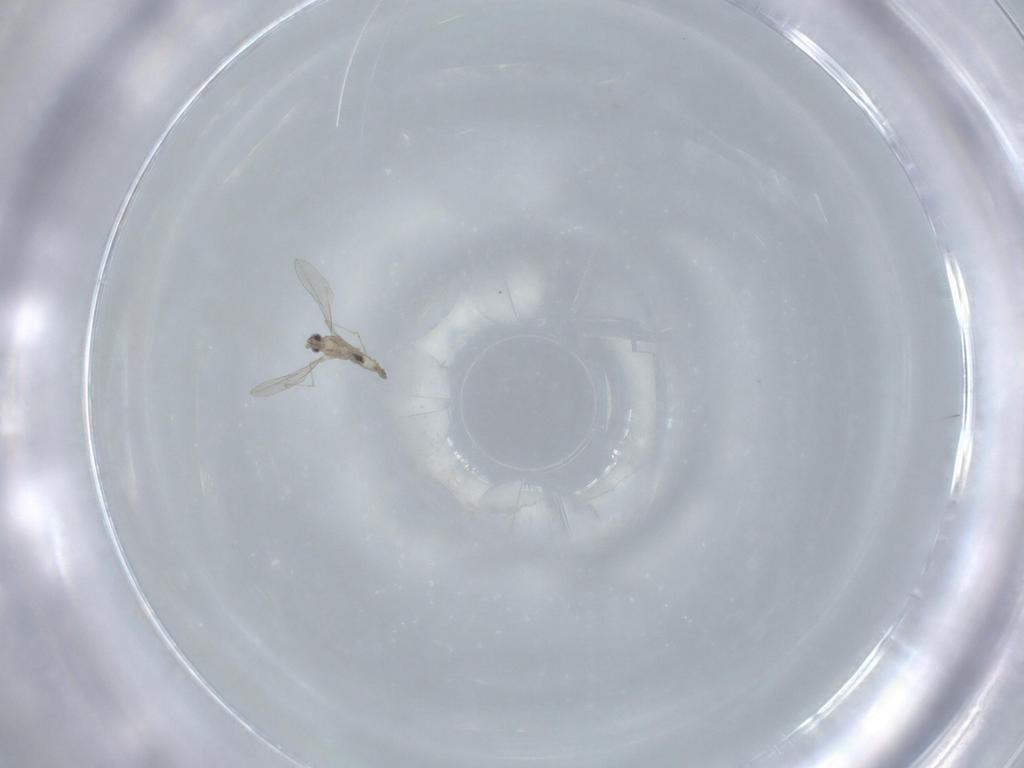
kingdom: Animalia
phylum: Arthropoda
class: Insecta
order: Diptera
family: Cecidomyiidae
